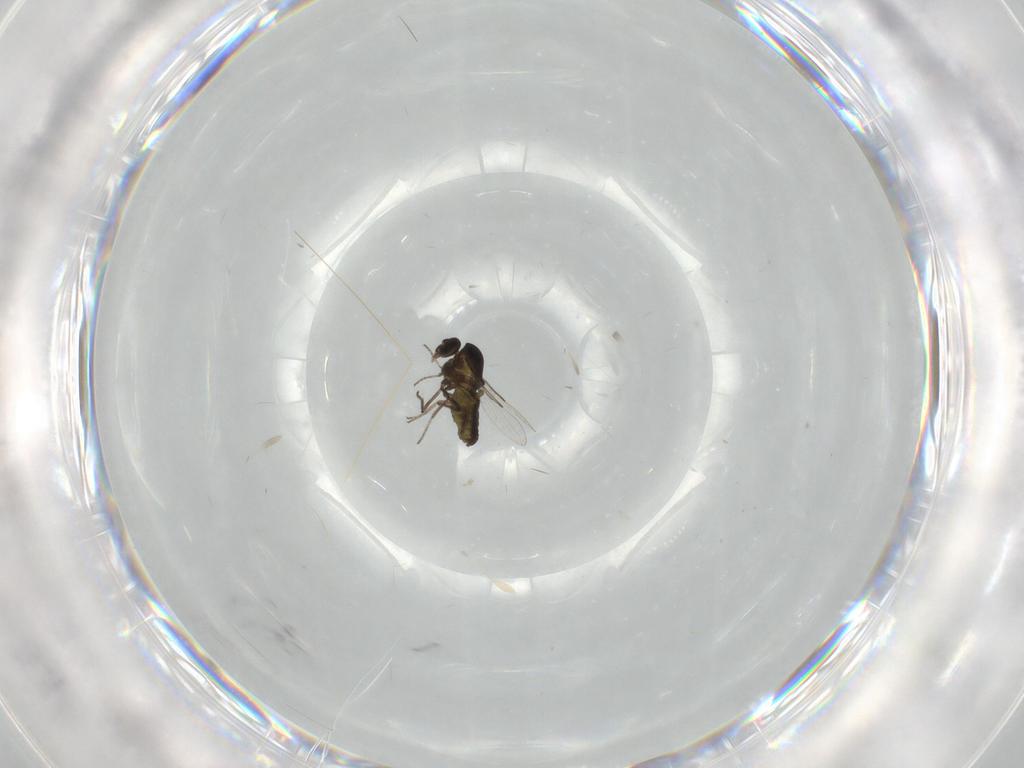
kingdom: Animalia
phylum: Arthropoda
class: Insecta
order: Diptera
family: Ceratopogonidae
